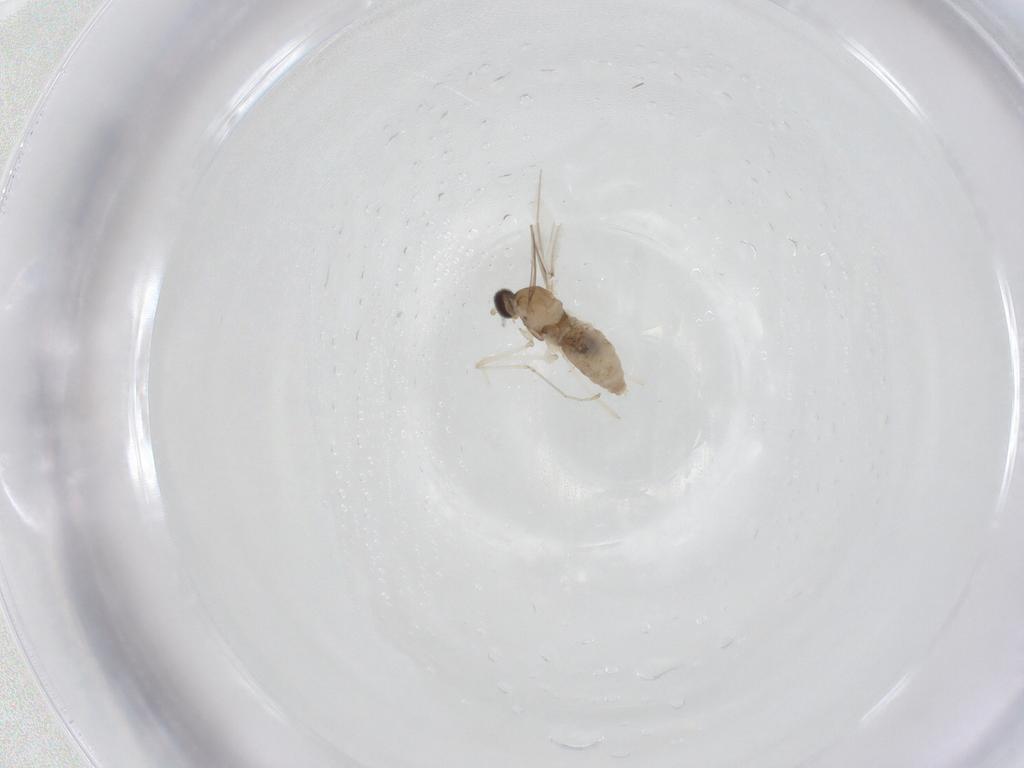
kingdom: Animalia
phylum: Arthropoda
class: Insecta
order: Diptera
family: Cecidomyiidae
